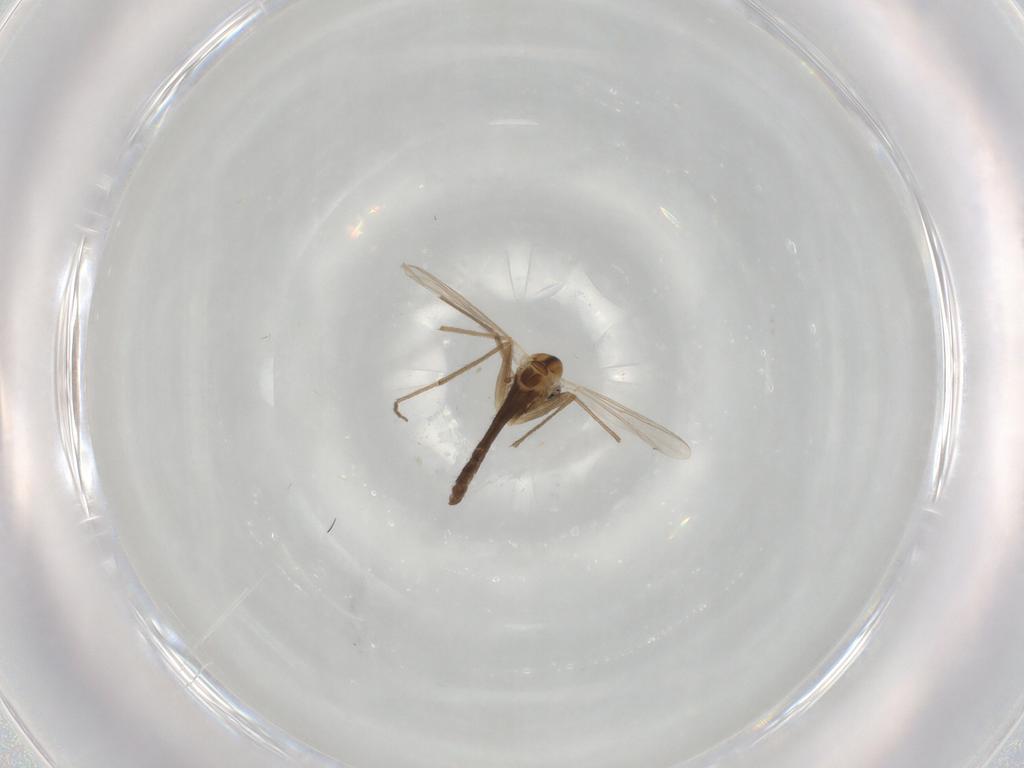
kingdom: Animalia
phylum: Arthropoda
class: Insecta
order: Diptera
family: Chironomidae
